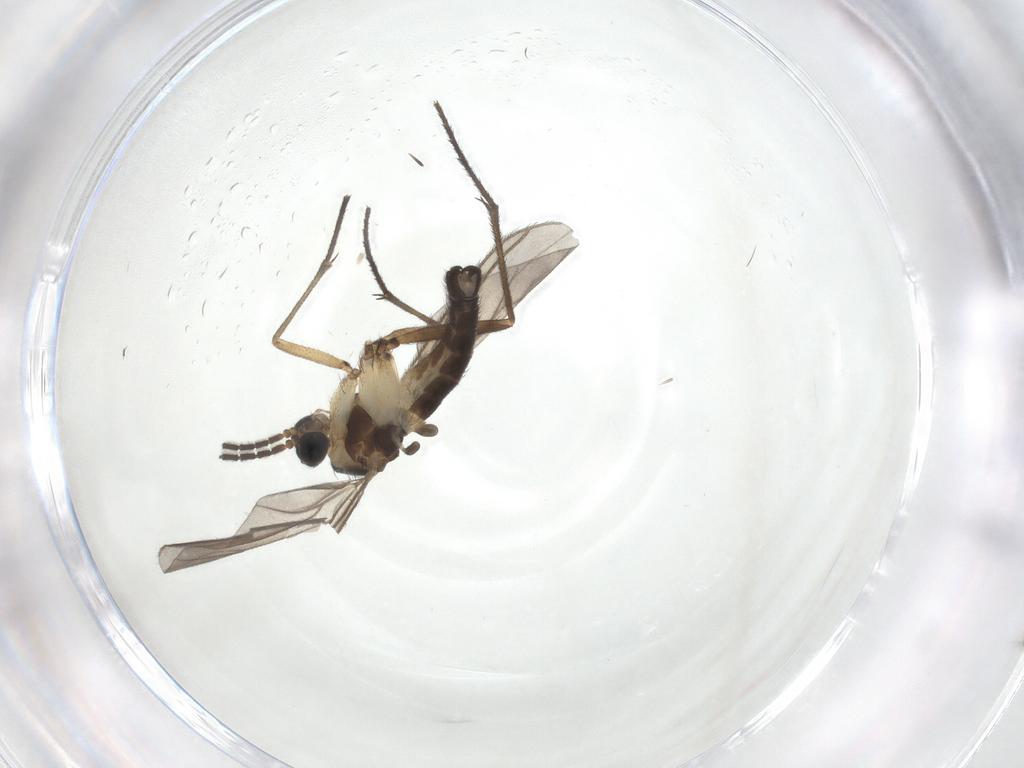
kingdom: Animalia
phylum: Arthropoda
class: Insecta
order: Diptera
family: Sciaridae
